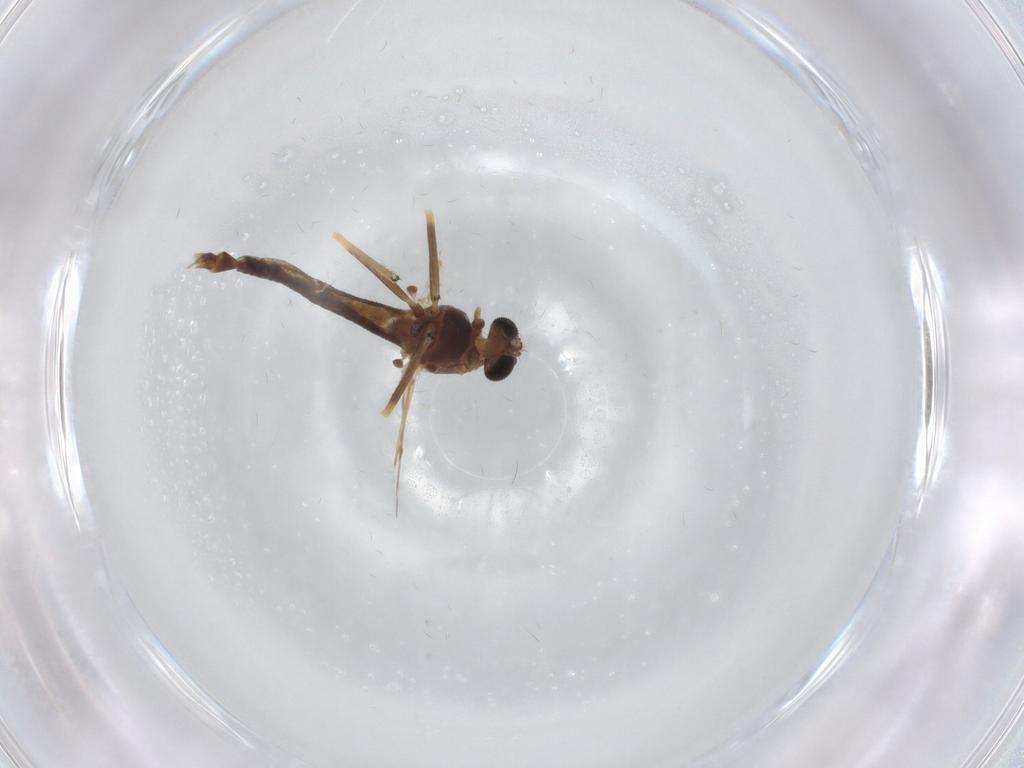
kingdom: Animalia
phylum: Arthropoda
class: Insecta
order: Diptera
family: Chironomidae
